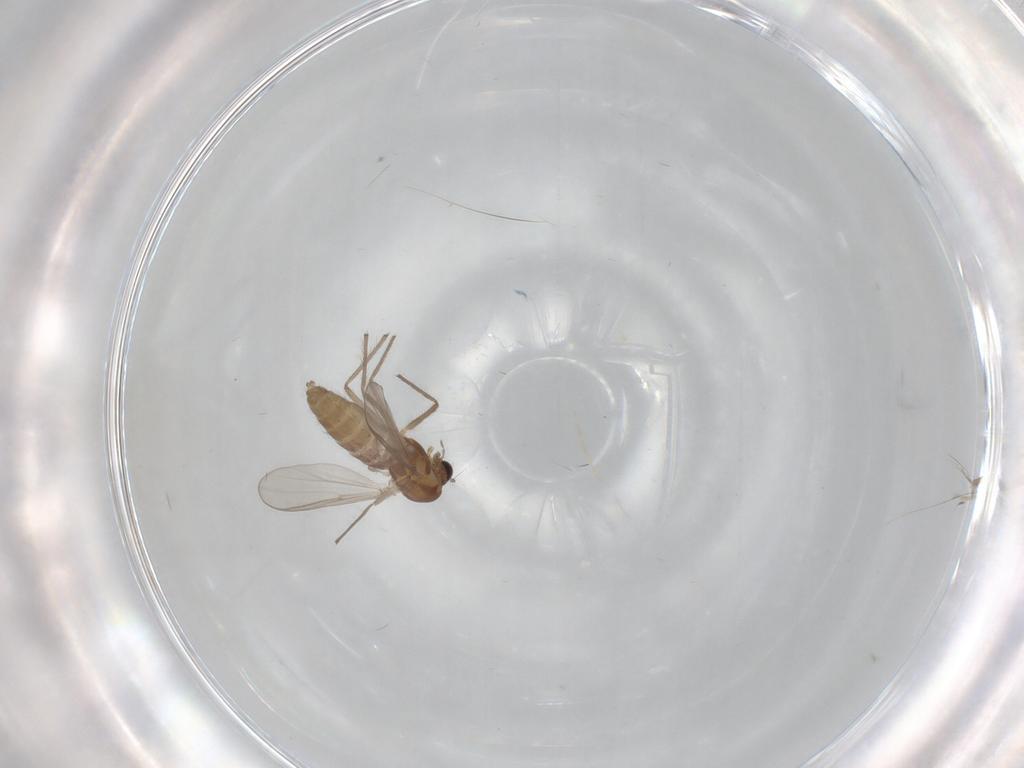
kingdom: Animalia
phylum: Arthropoda
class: Insecta
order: Diptera
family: Chironomidae
